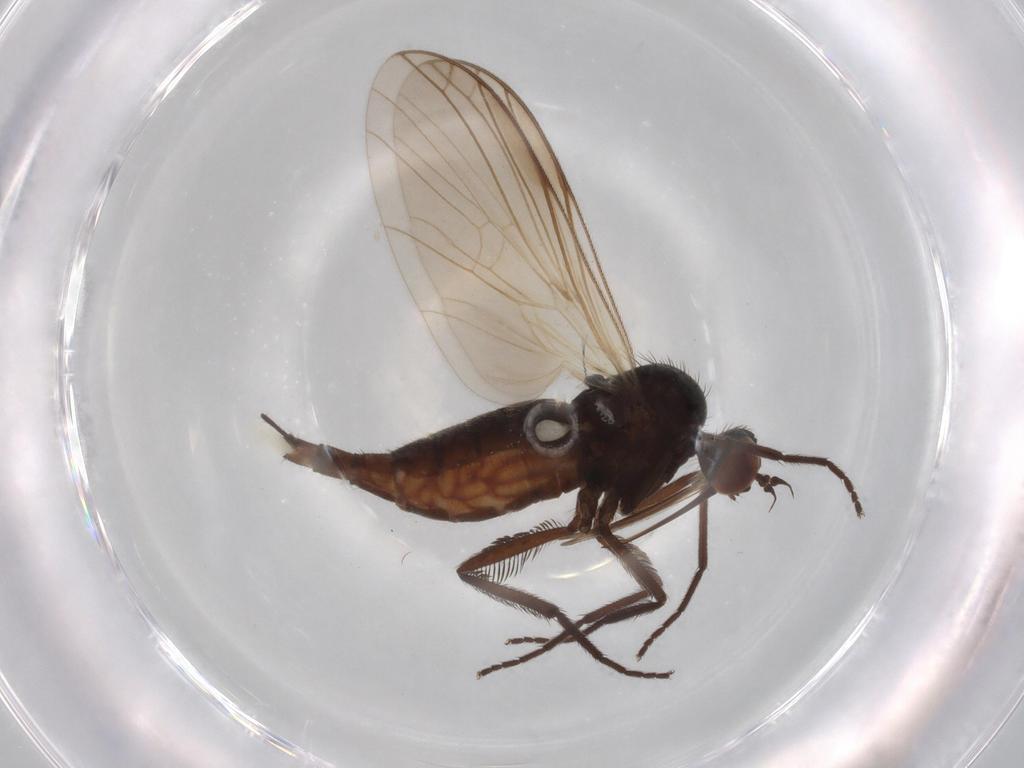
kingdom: Animalia
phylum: Arthropoda
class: Insecta
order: Diptera
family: Empididae
